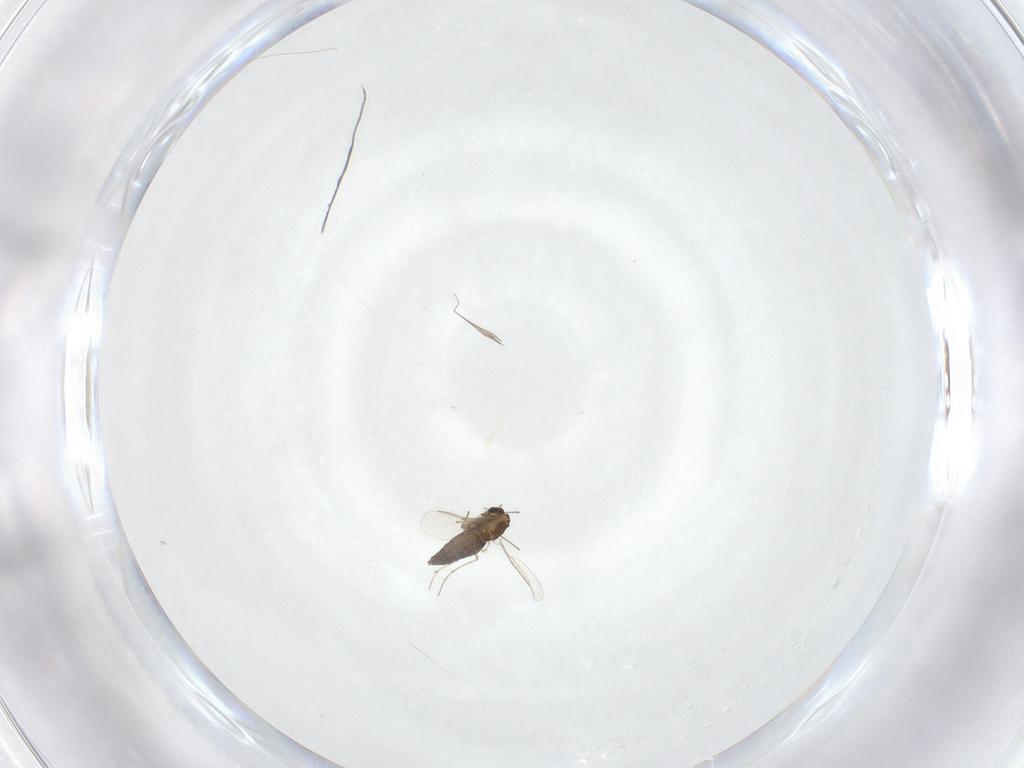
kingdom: Animalia
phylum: Arthropoda
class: Insecta
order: Diptera
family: Chironomidae
